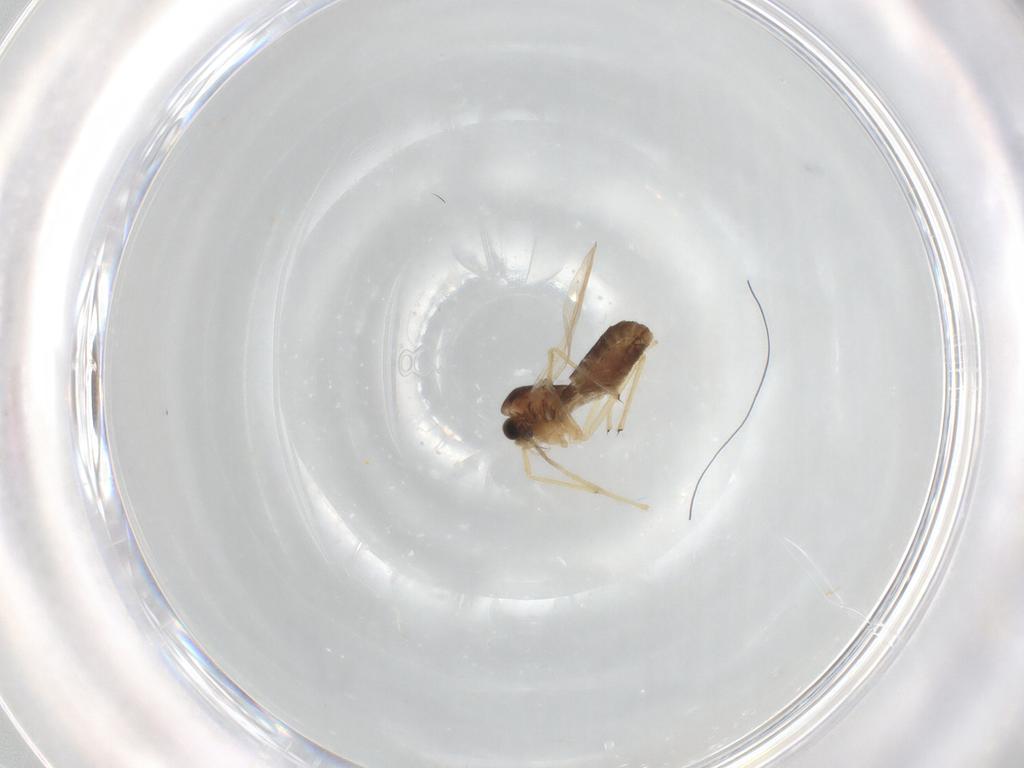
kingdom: Animalia
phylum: Arthropoda
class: Insecta
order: Diptera
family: Chironomidae
